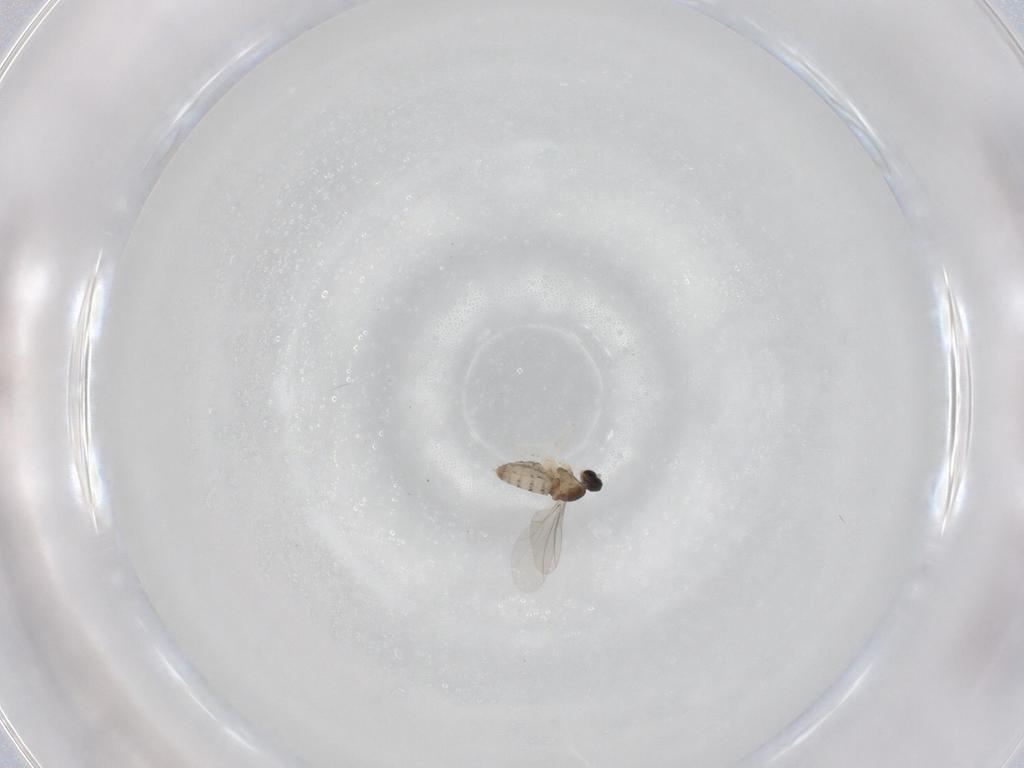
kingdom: Animalia
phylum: Arthropoda
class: Insecta
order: Diptera
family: Cecidomyiidae
